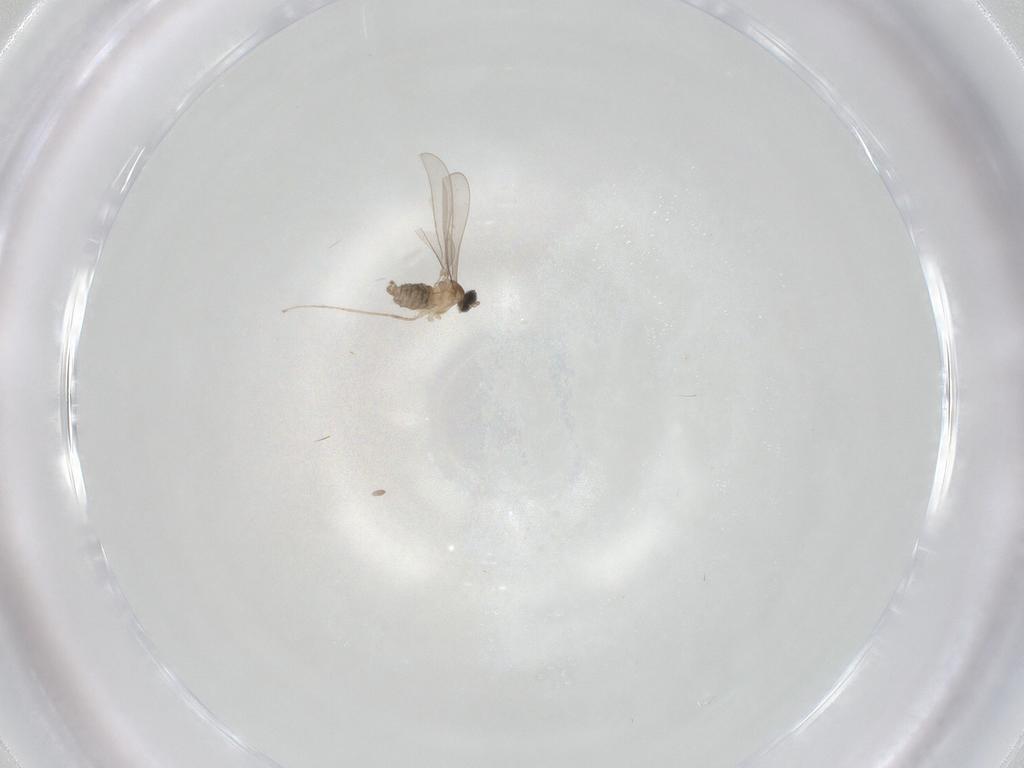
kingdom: Animalia
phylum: Arthropoda
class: Insecta
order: Diptera
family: Cecidomyiidae
